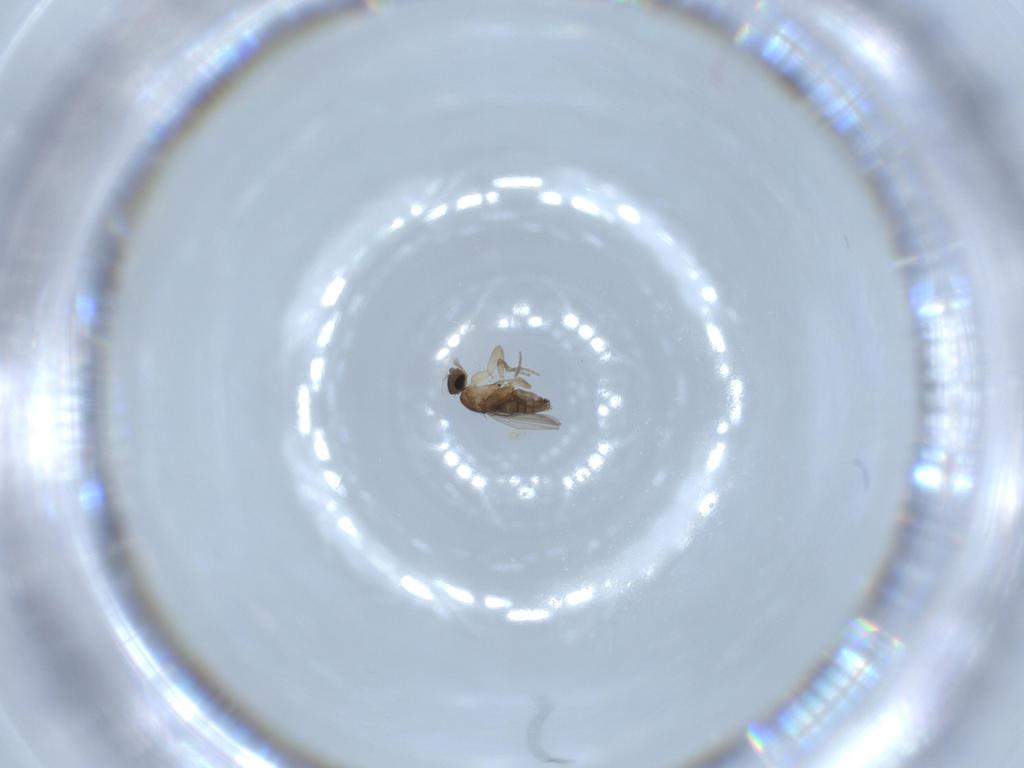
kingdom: Animalia
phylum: Arthropoda
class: Insecta
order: Diptera
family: Phoridae
